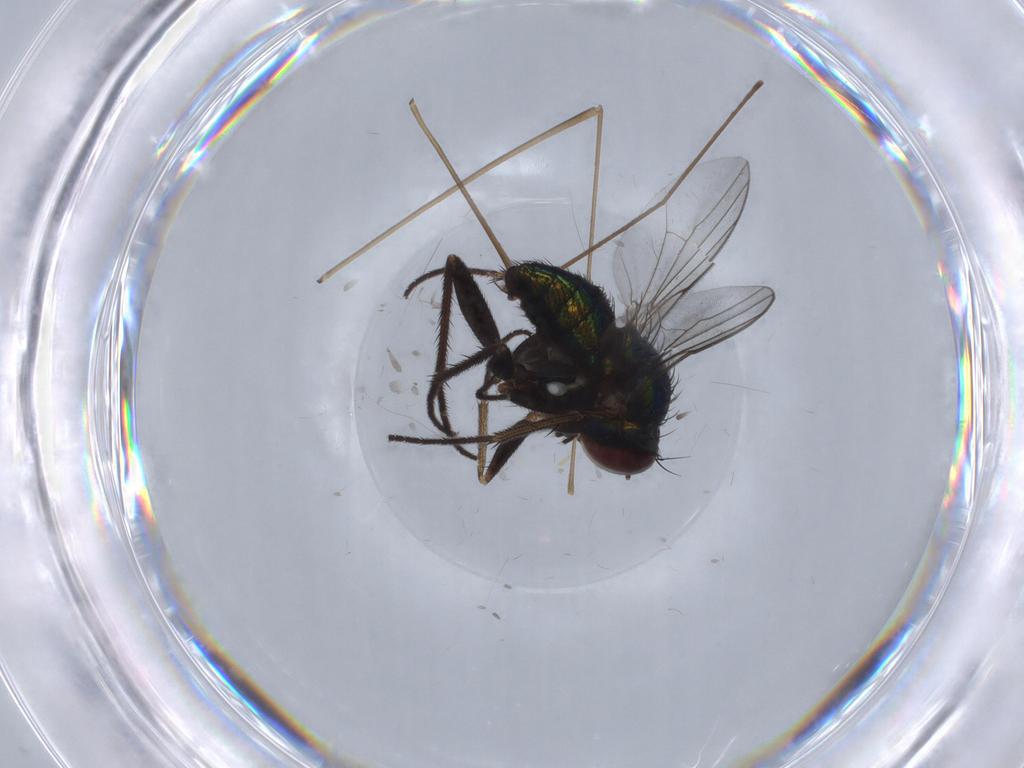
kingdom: Animalia
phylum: Arthropoda
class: Insecta
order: Diptera
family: Dolichopodidae
